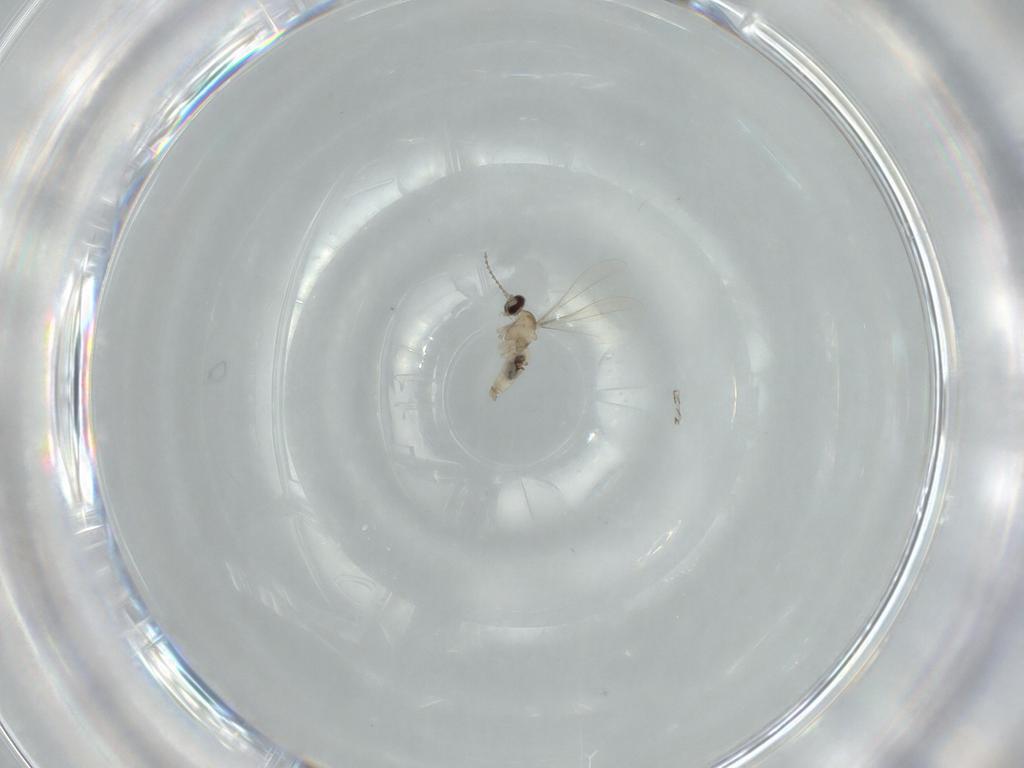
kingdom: Animalia
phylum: Arthropoda
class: Insecta
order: Diptera
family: Cecidomyiidae
